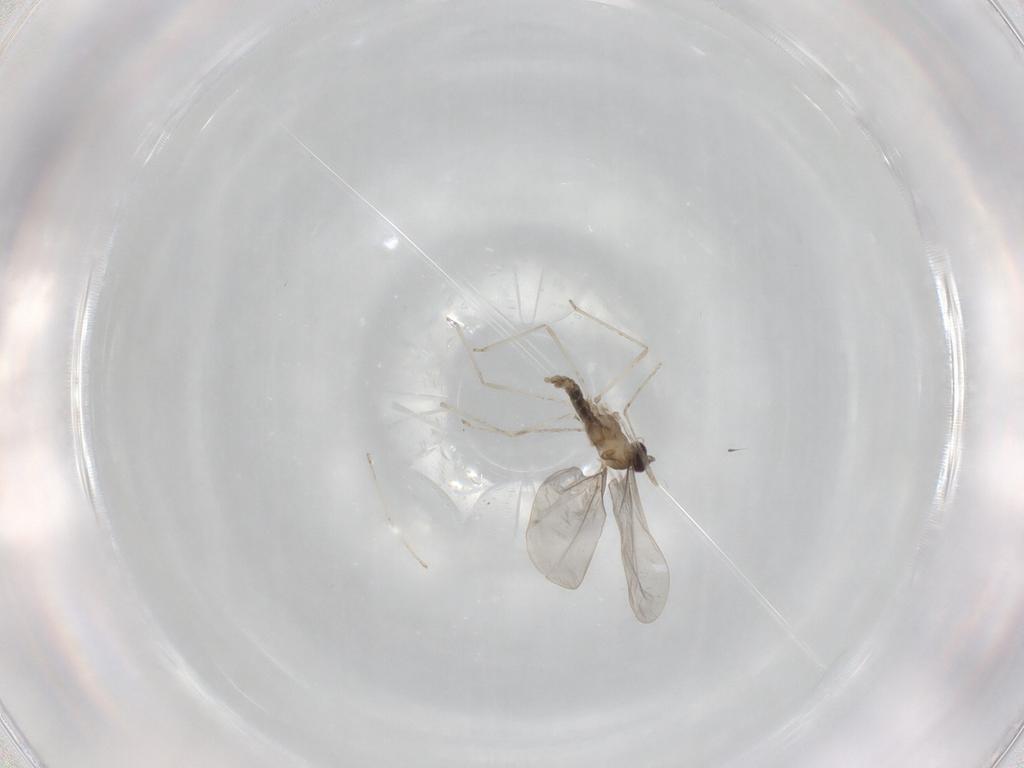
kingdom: Animalia
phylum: Arthropoda
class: Insecta
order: Diptera
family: Cecidomyiidae
